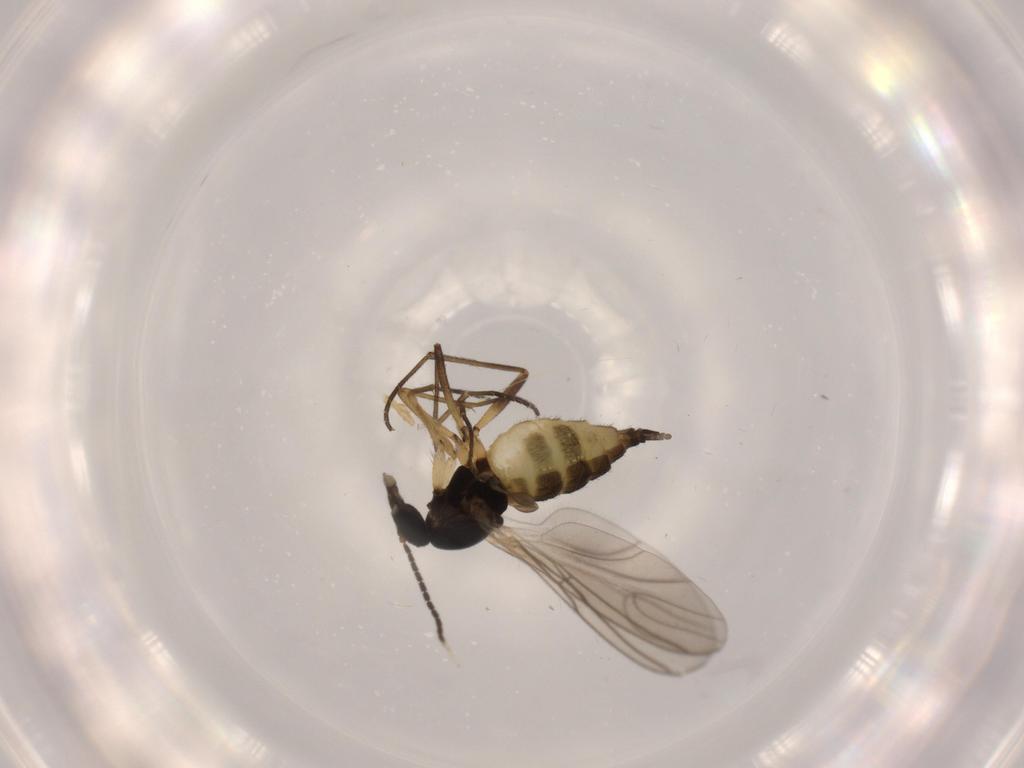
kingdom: Animalia
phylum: Arthropoda
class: Insecta
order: Diptera
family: Sciaridae
